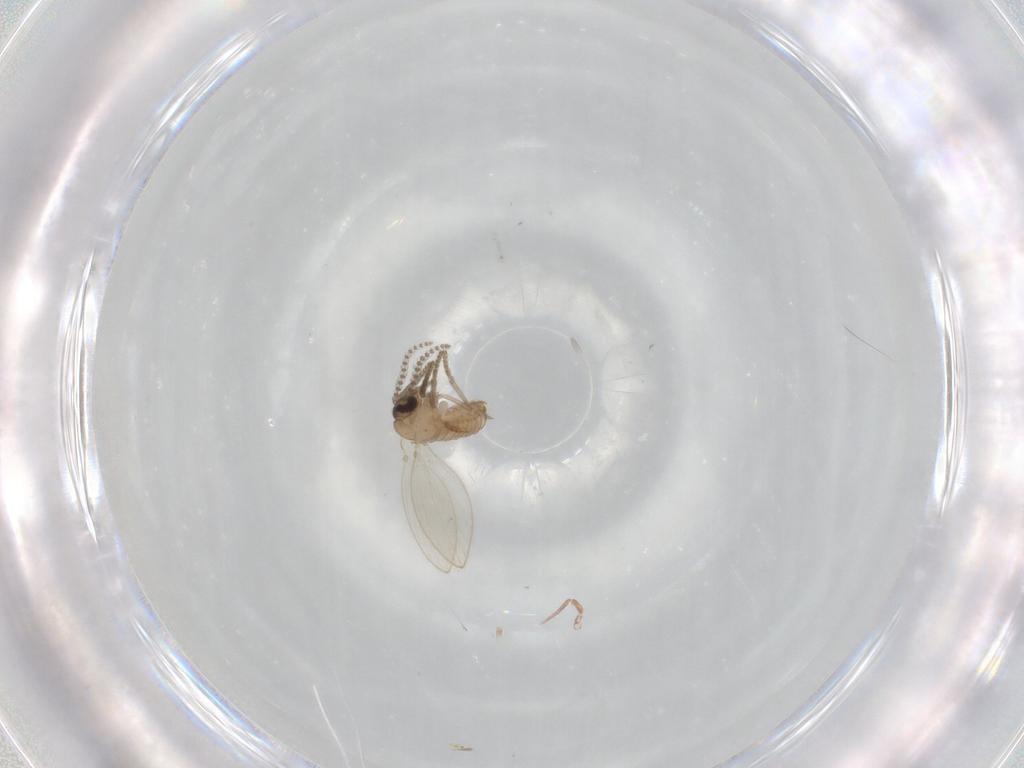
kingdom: Animalia
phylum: Arthropoda
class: Insecta
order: Diptera
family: Psychodidae
